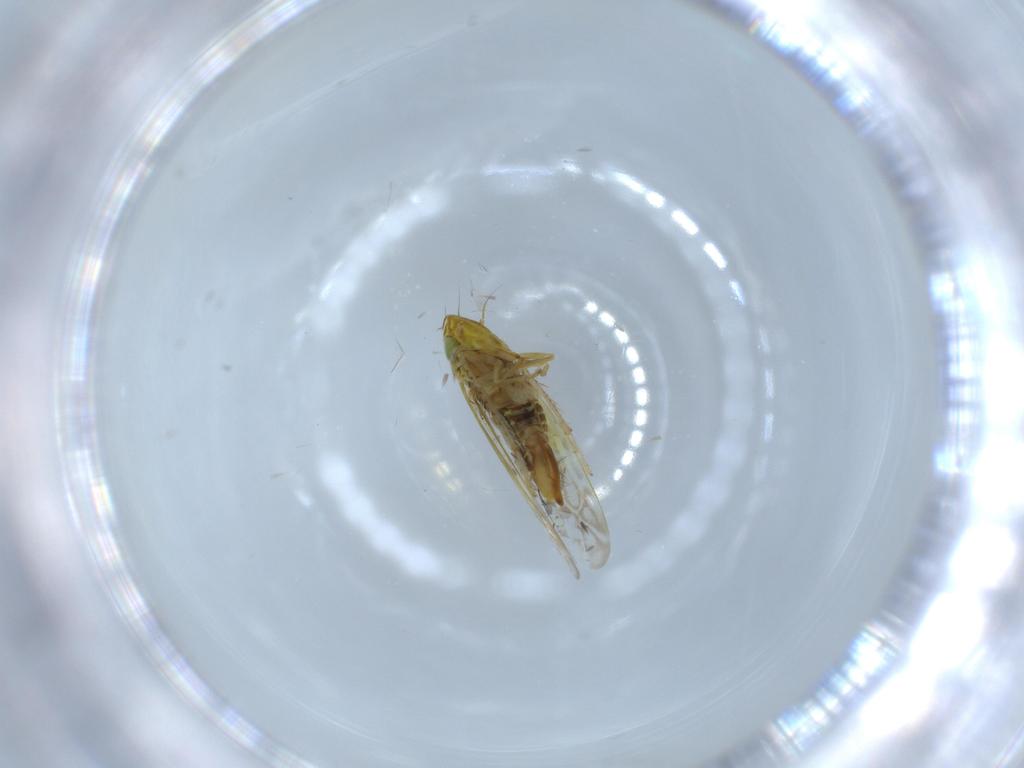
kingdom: Animalia
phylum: Arthropoda
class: Insecta
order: Hemiptera
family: Cicadellidae
